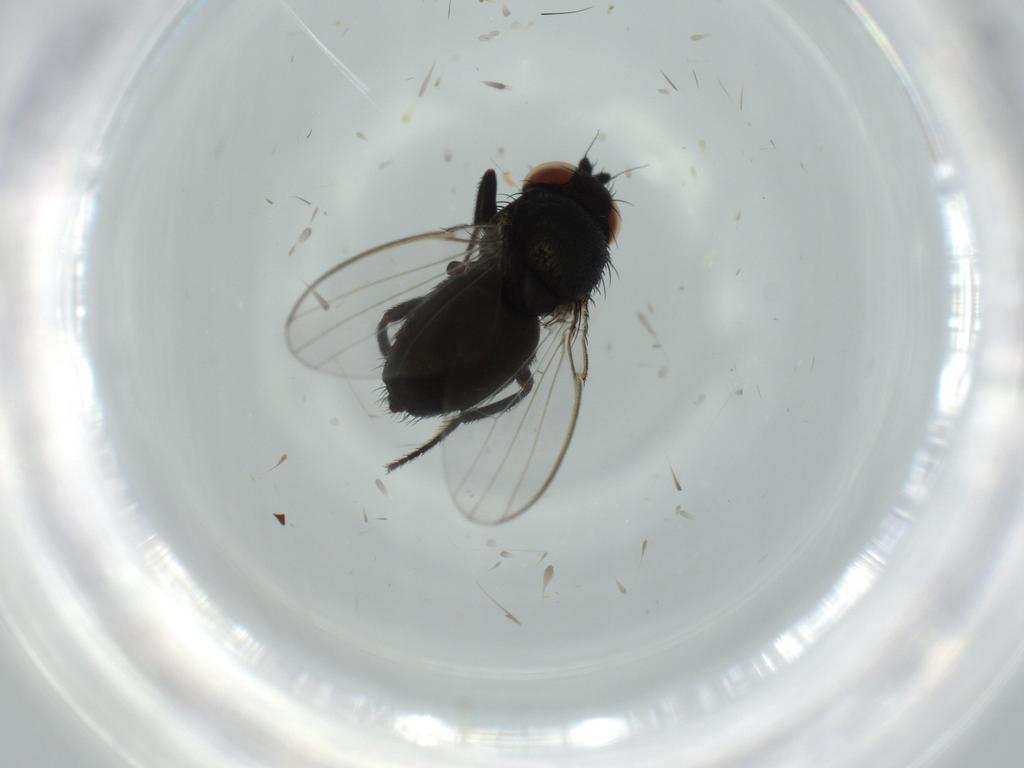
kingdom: Animalia
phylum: Arthropoda
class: Insecta
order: Diptera
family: Milichiidae
